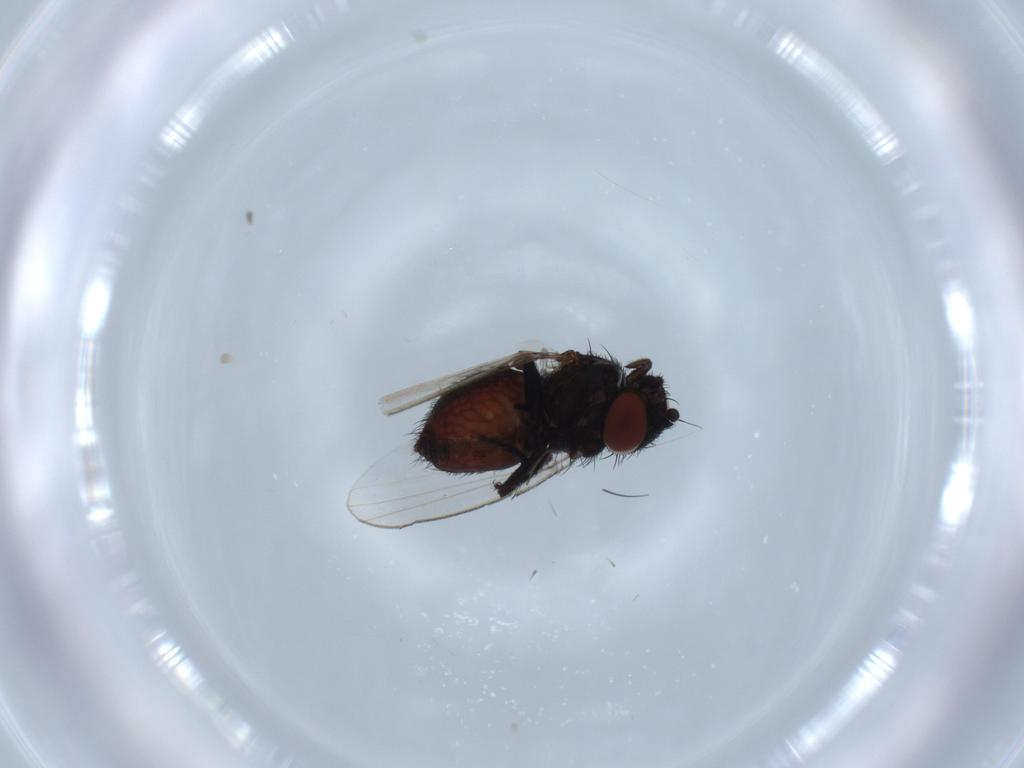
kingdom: Animalia
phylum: Arthropoda
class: Insecta
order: Diptera
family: Milichiidae
